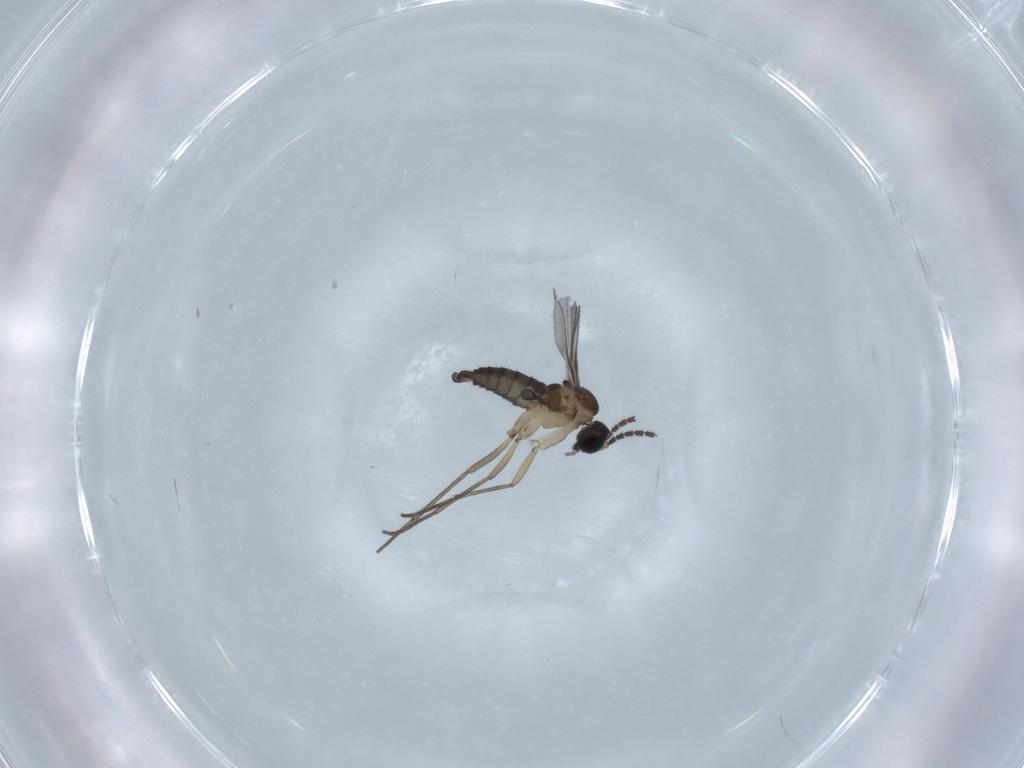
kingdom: Animalia
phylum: Arthropoda
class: Insecta
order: Diptera
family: Sciaridae
